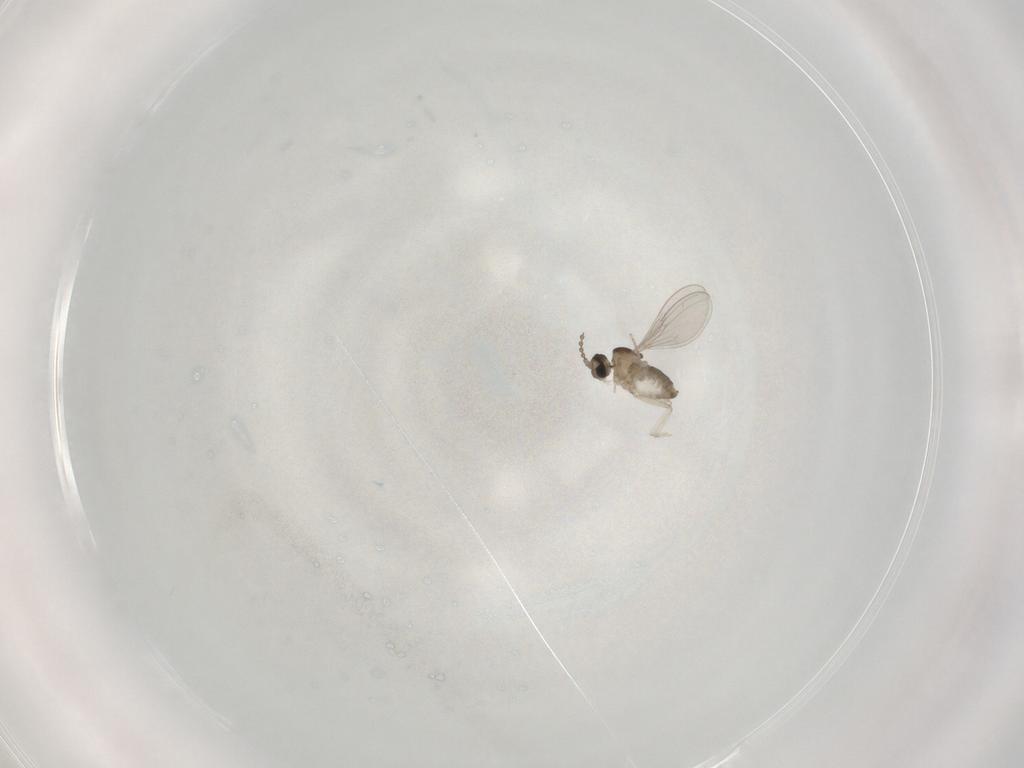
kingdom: Animalia
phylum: Arthropoda
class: Insecta
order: Diptera
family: Cecidomyiidae
